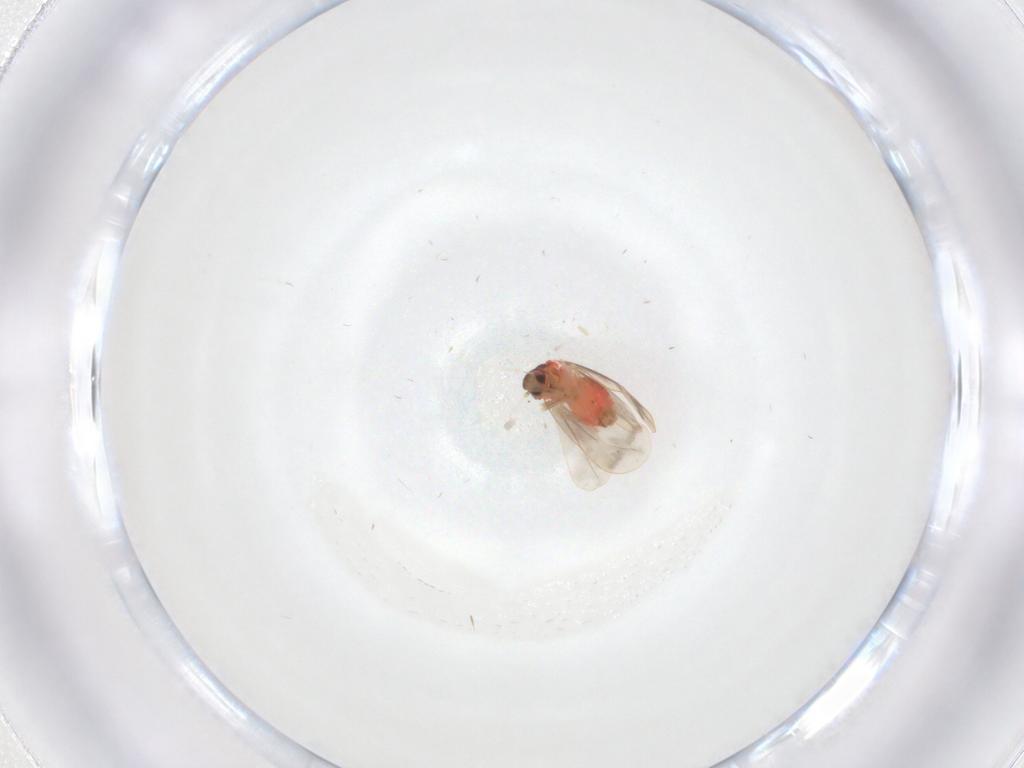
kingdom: Animalia
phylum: Arthropoda
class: Insecta
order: Hemiptera
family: Aleyrodidae
